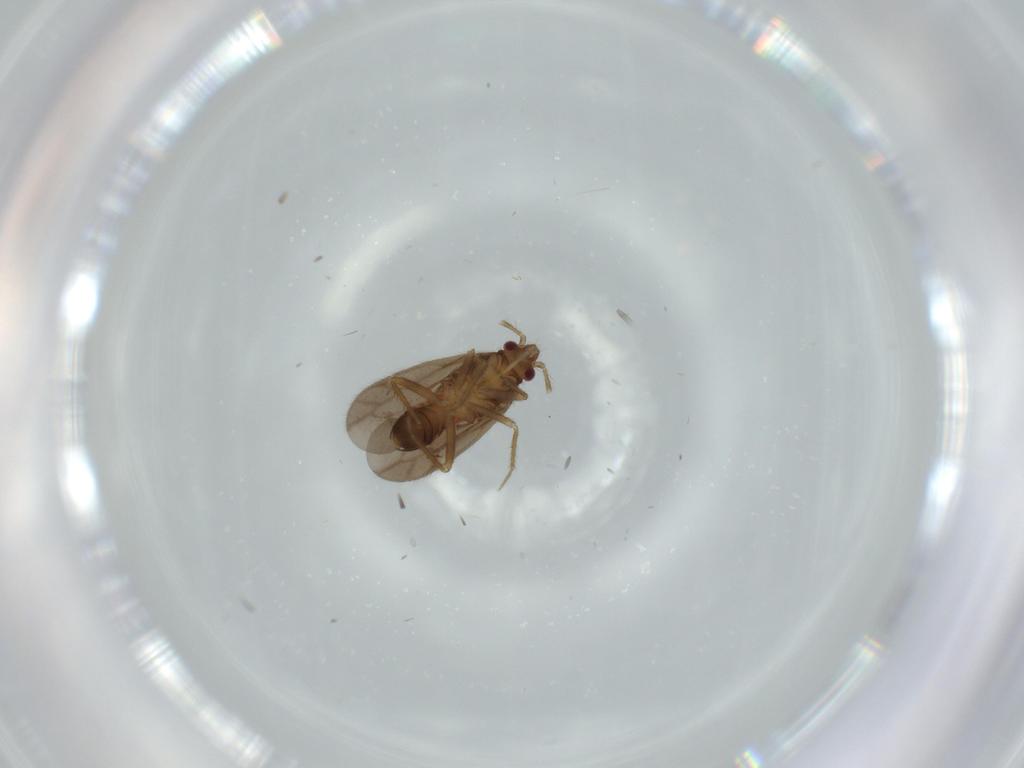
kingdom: Animalia
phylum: Arthropoda
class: Insecta
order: Hemiptera
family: Ceratocombidae
